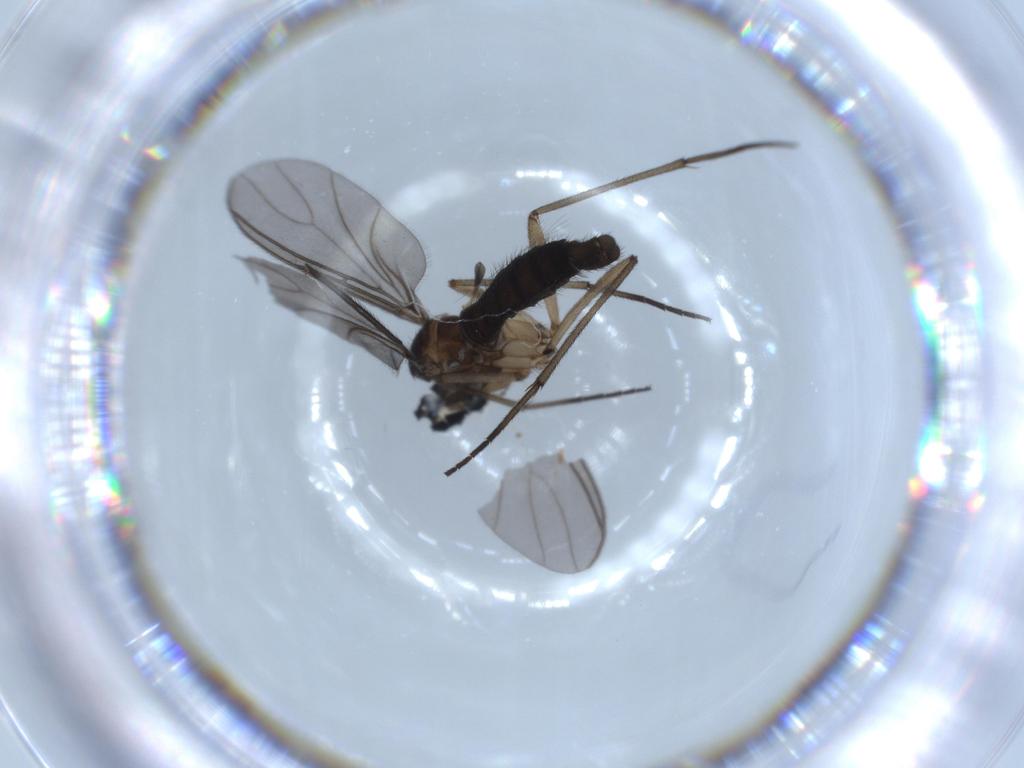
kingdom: Animalia
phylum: Arthropoda
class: Insecta
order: Diptera
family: Sciaridae
